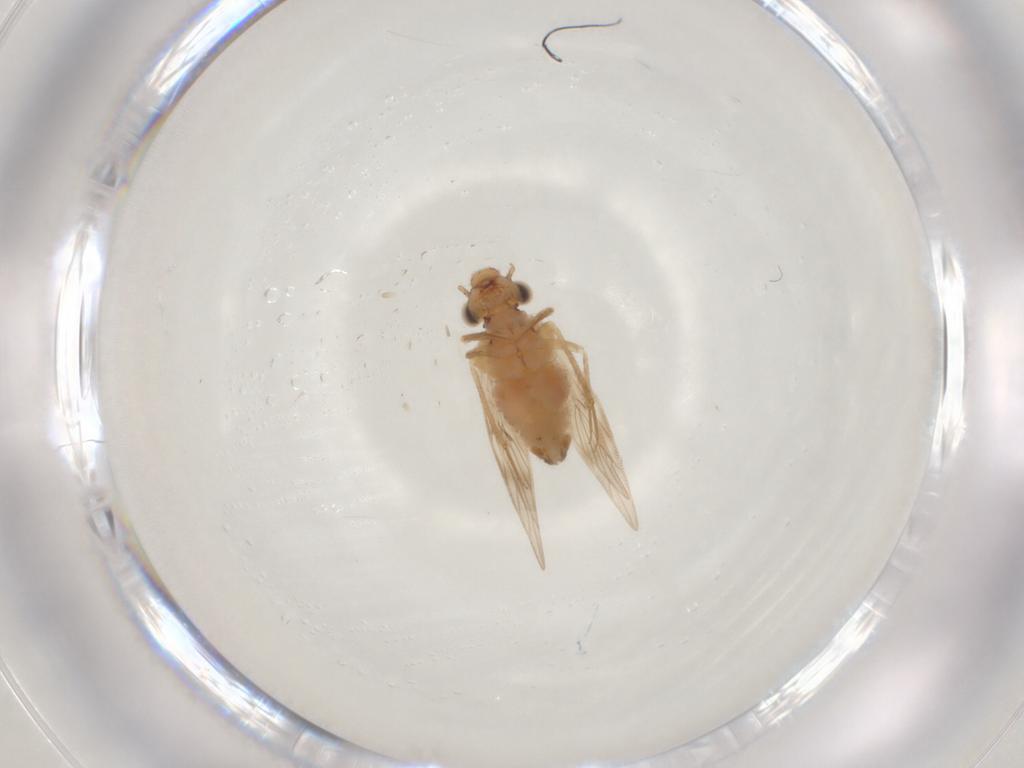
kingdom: Animalia
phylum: Arthropoda
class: Insecta
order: Psocodea
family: Lepidopsocidae
